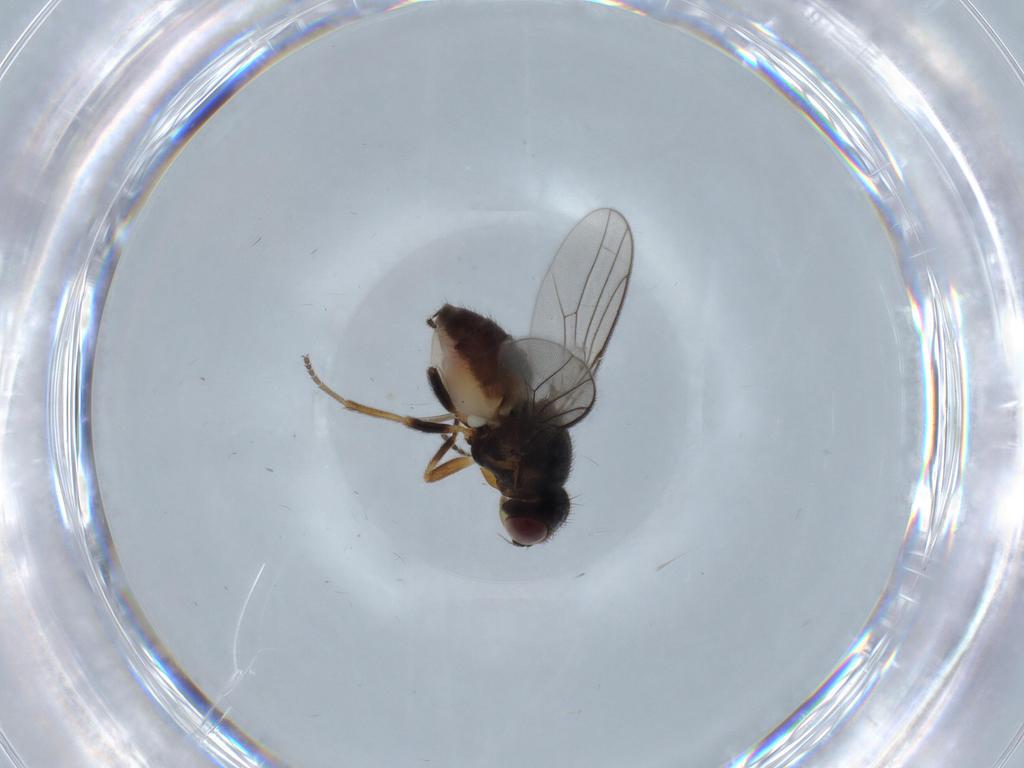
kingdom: Animalia
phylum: Arthropoda
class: Insecta
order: Diptera
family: Chloropidae
